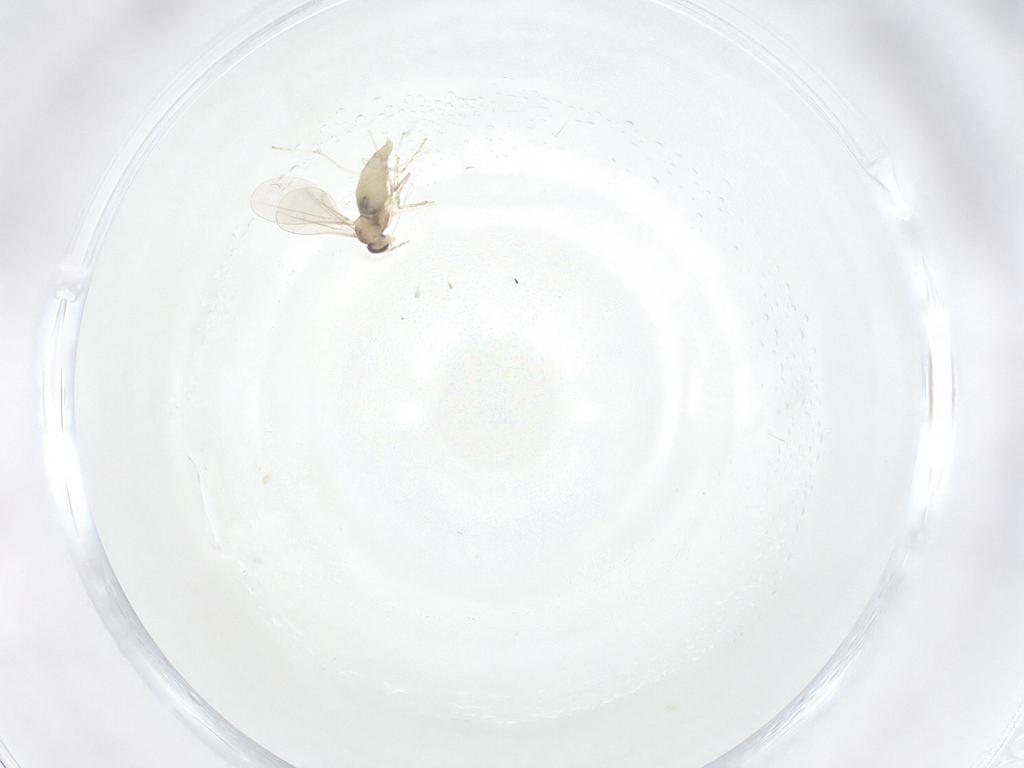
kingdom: Animalia
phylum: Arthropoda
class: Insecta
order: Diptera
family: Cecidomyiidae
